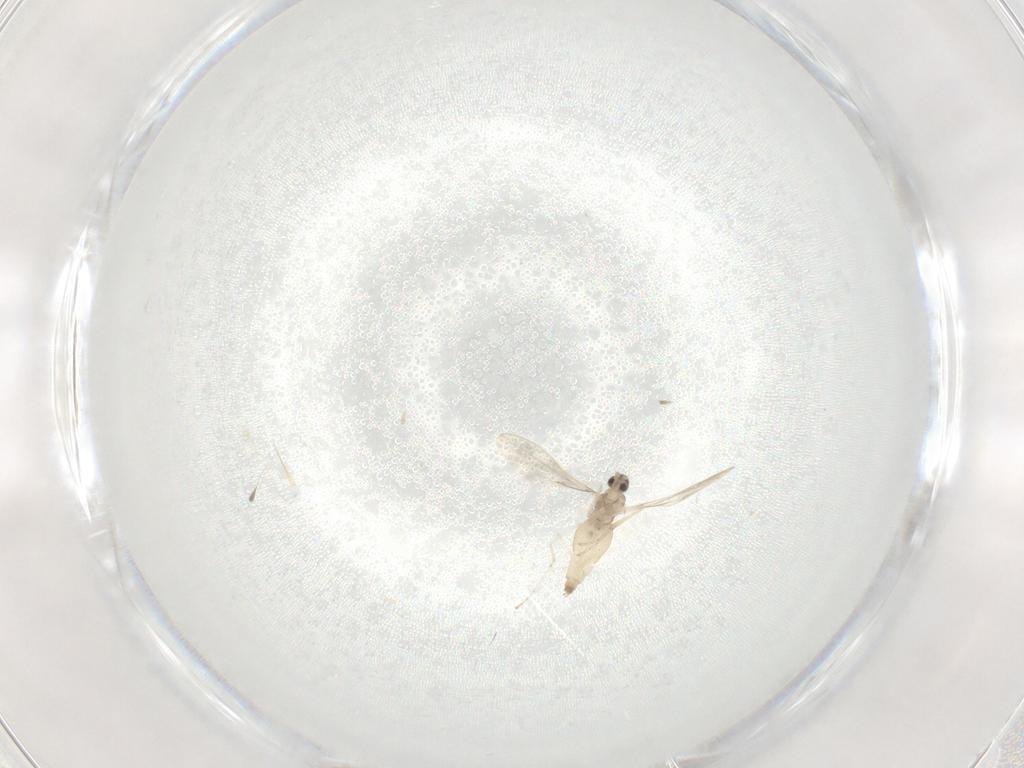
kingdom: Animalia
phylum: Arthropoda
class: Insecta
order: Diptera
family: Cecidomyiidae
